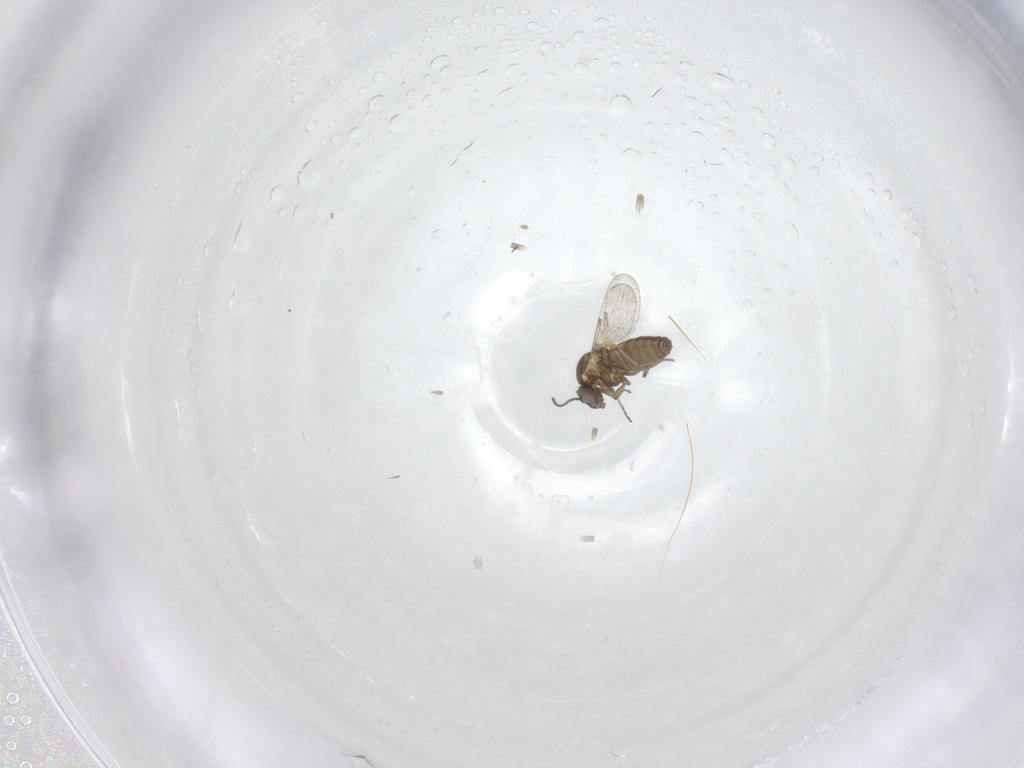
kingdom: Animalia
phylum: Arthropoda
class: Insecta
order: Diptera
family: Ceratopogonidae
